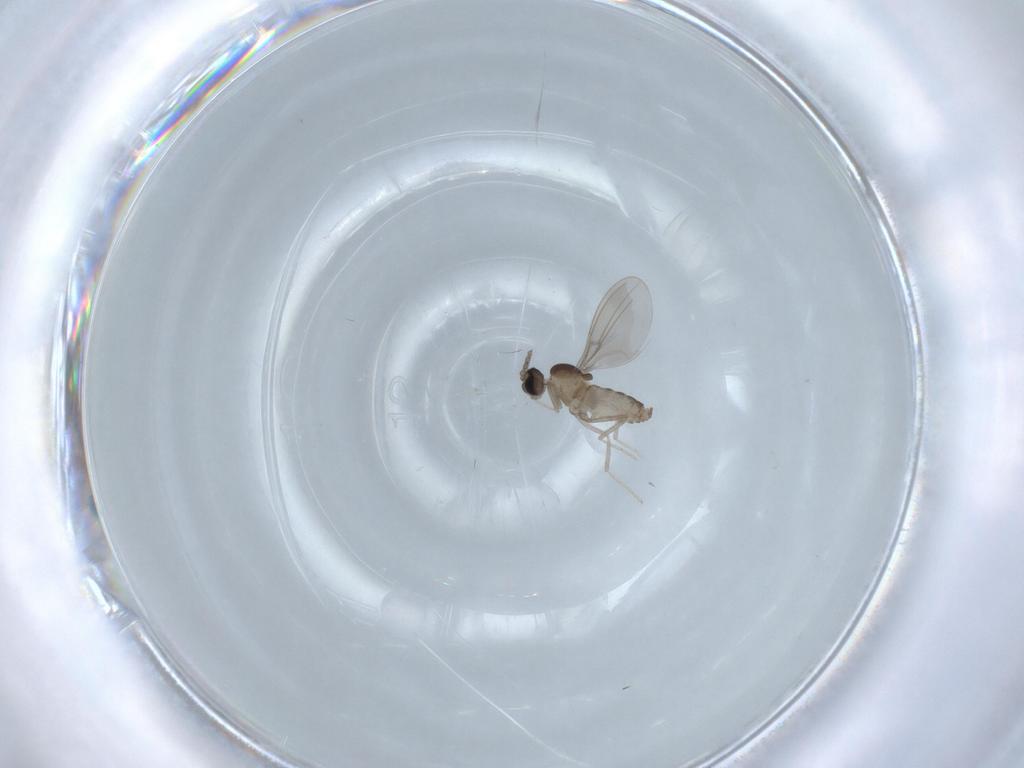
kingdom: Animalia
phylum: Arthropoda
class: Insecta
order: Diptera
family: Cecidomyiidae
